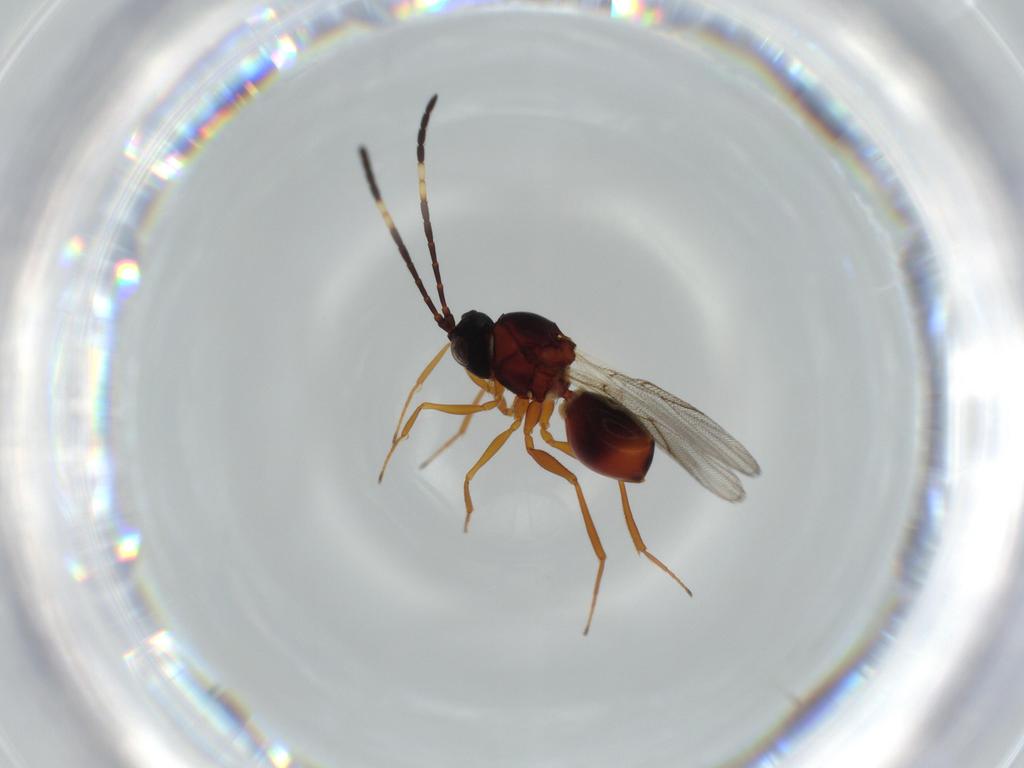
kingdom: Animalia
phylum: Arthropoda
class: Insecta
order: Hymenoptera
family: Figitidae
